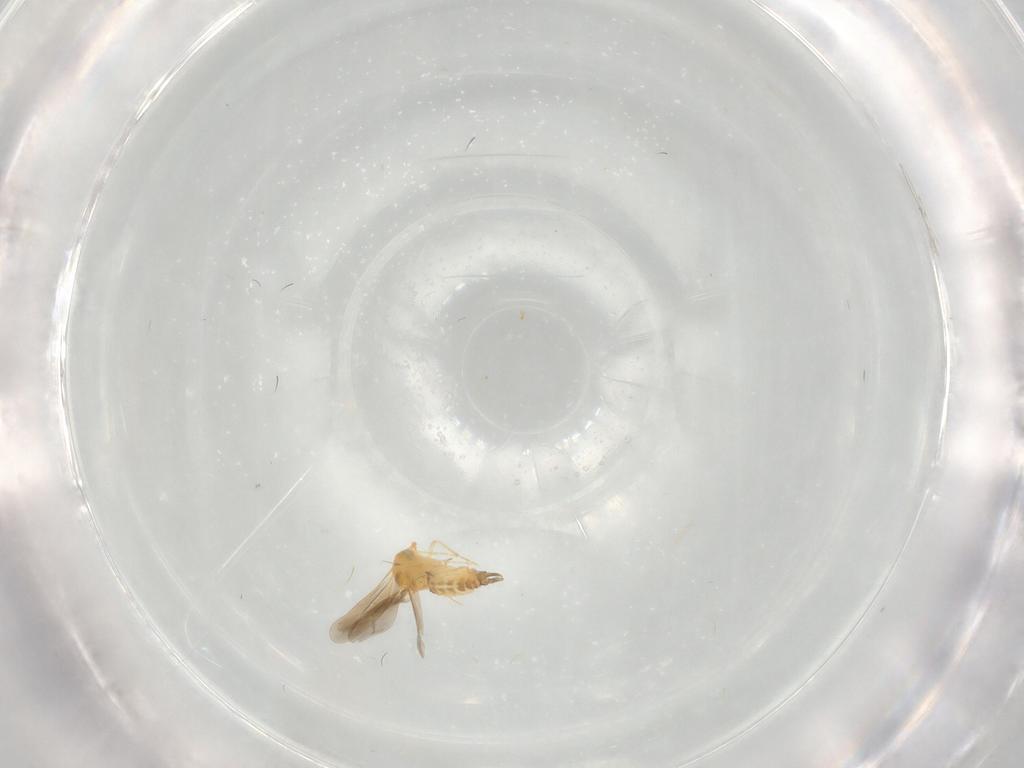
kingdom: Animalia
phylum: Arthropoda
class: Insecta
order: Hemiptera
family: Aleyrodidae
